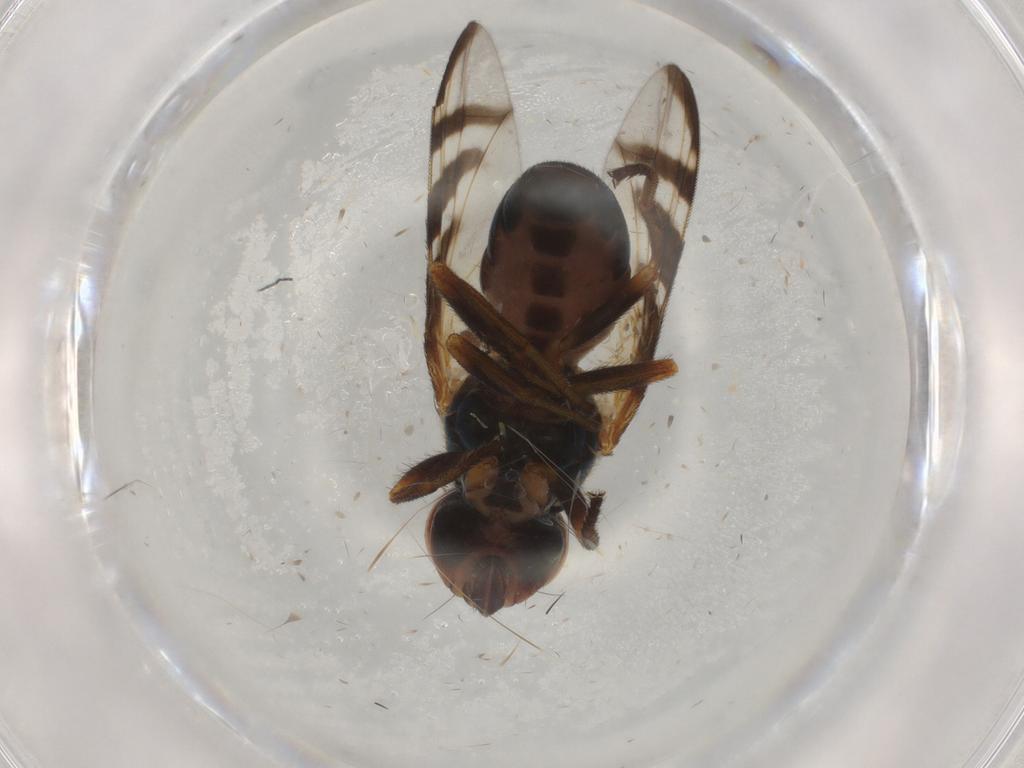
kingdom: Animalia
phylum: Arthropoda
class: Insecta
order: Diptera
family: Platystomatidae
